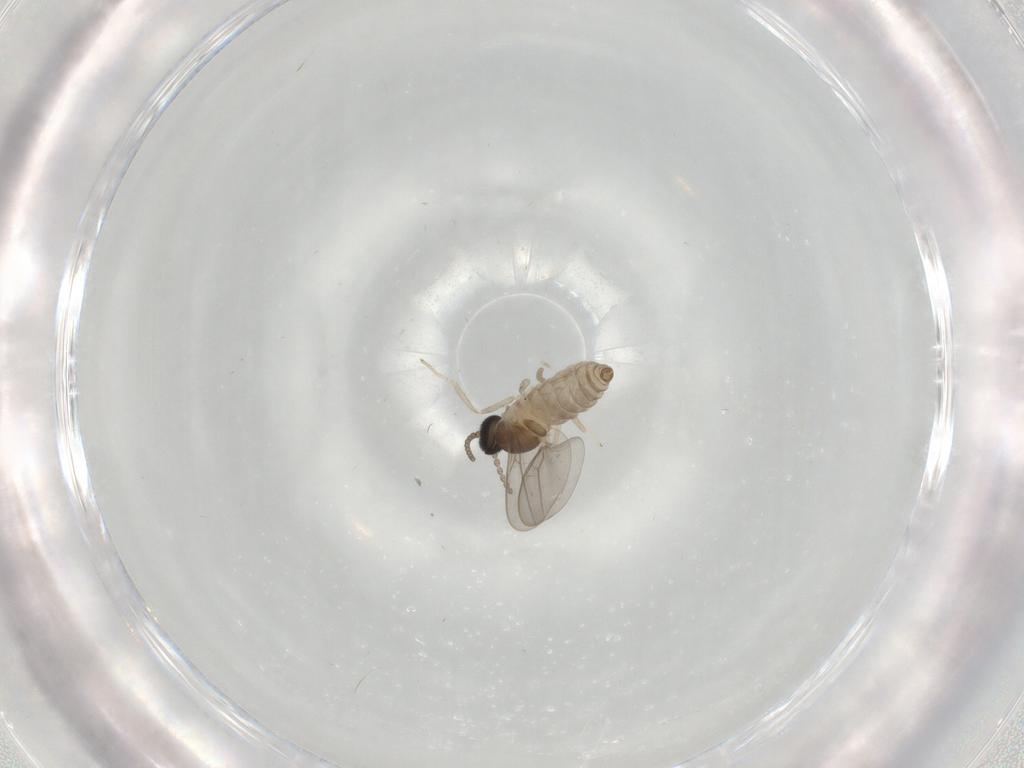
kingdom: Animalia
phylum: Arthropoda
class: Insecta
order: Diptera
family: Cecidomyiidae
